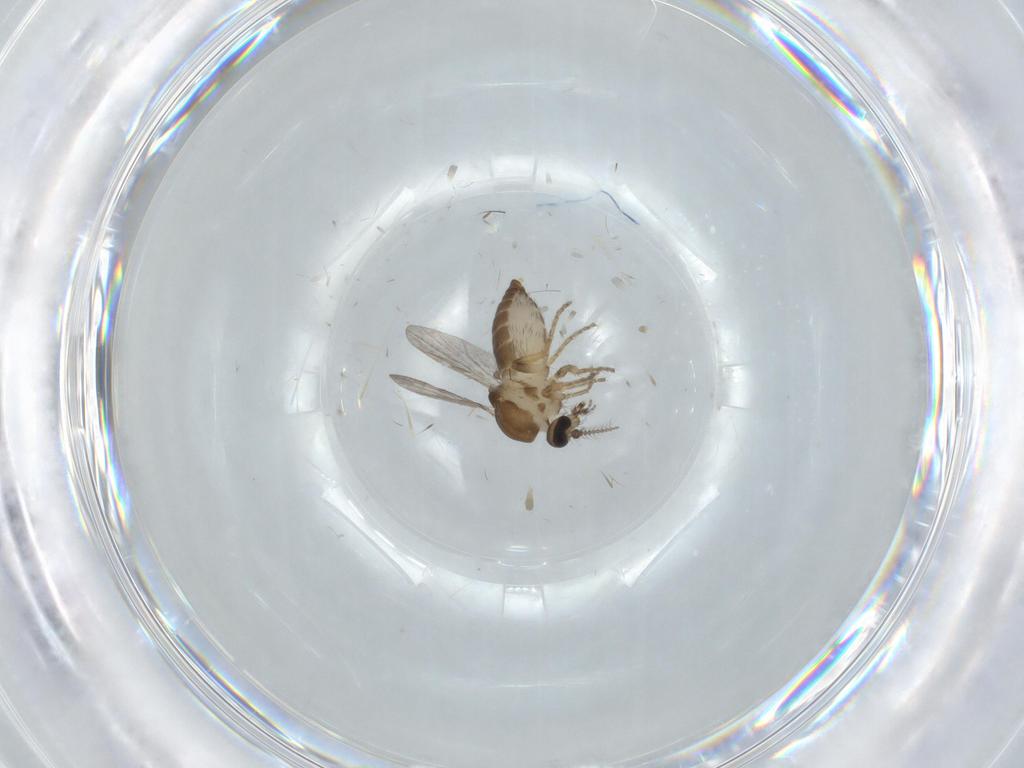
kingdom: Animalia
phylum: Arthropoda
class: Insecta
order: Diptera
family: Ceratopogonidae
